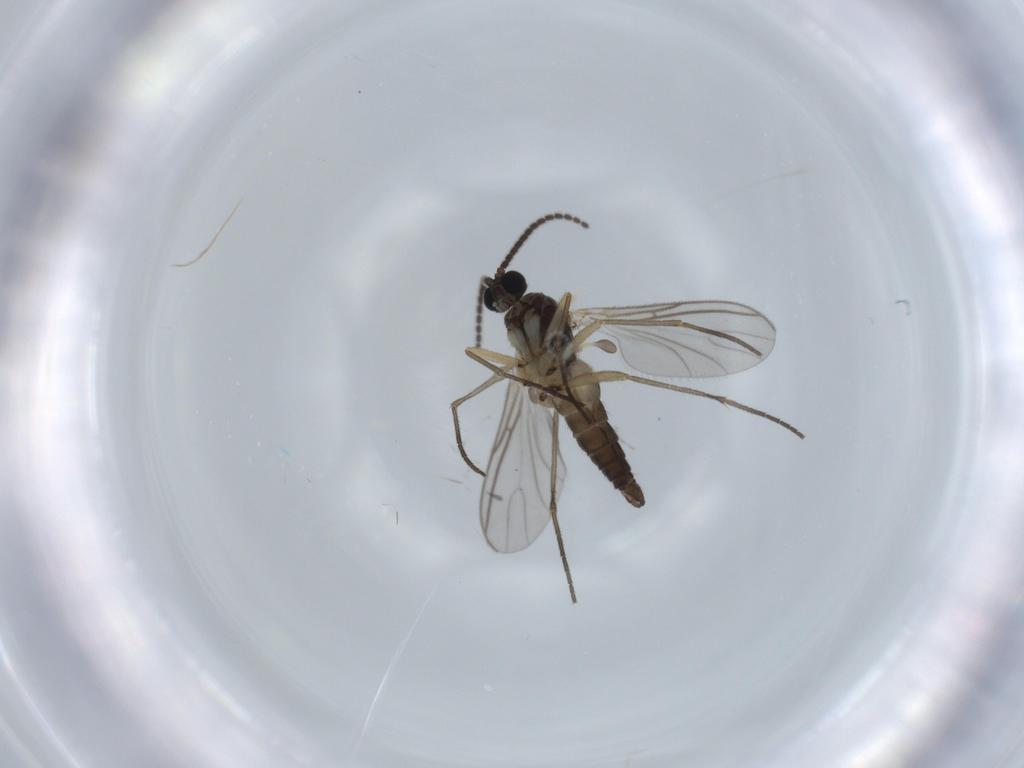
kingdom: Animalia
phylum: Arthropoda
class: Insecta
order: Diptera
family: Sciaridae
